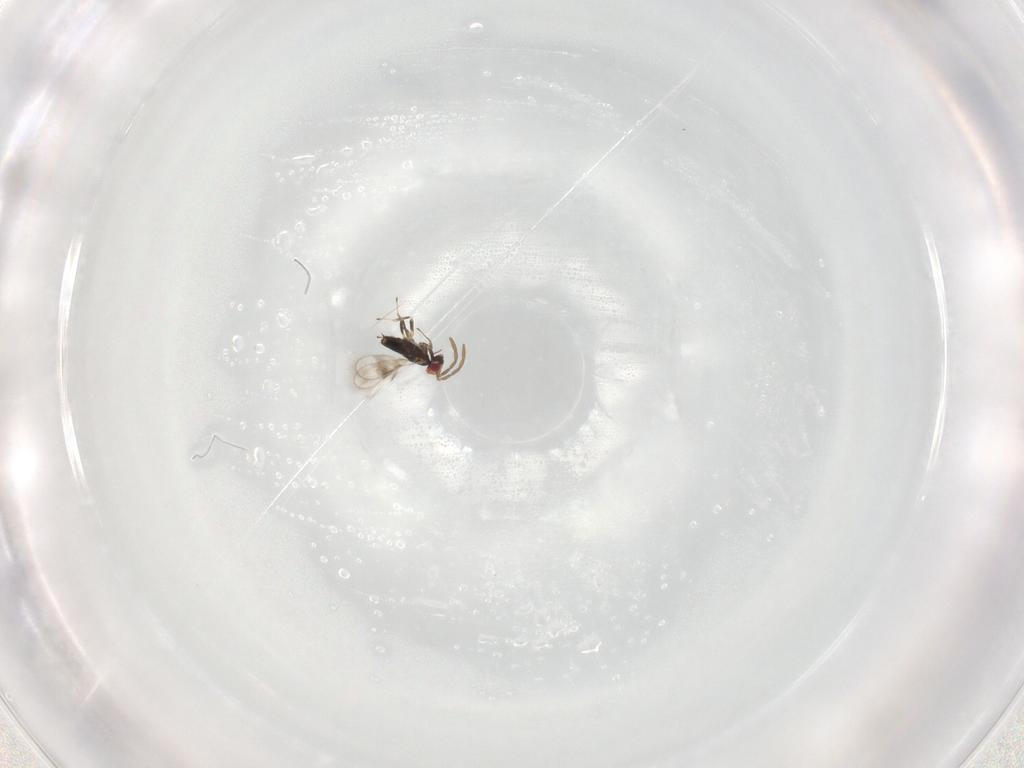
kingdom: Animalia
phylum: Arthropoda
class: Insecta
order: Hymenoptera
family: Azotidae
